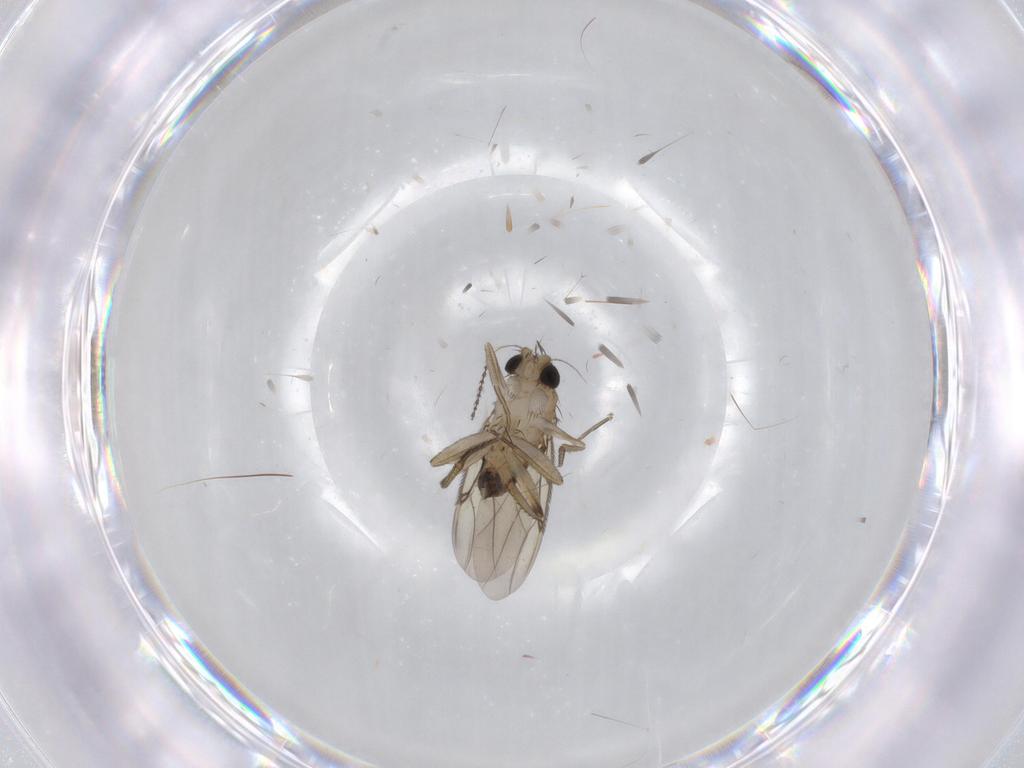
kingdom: Animalia
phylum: Arthropoda
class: Insecta
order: Diptera
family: Phoridae
